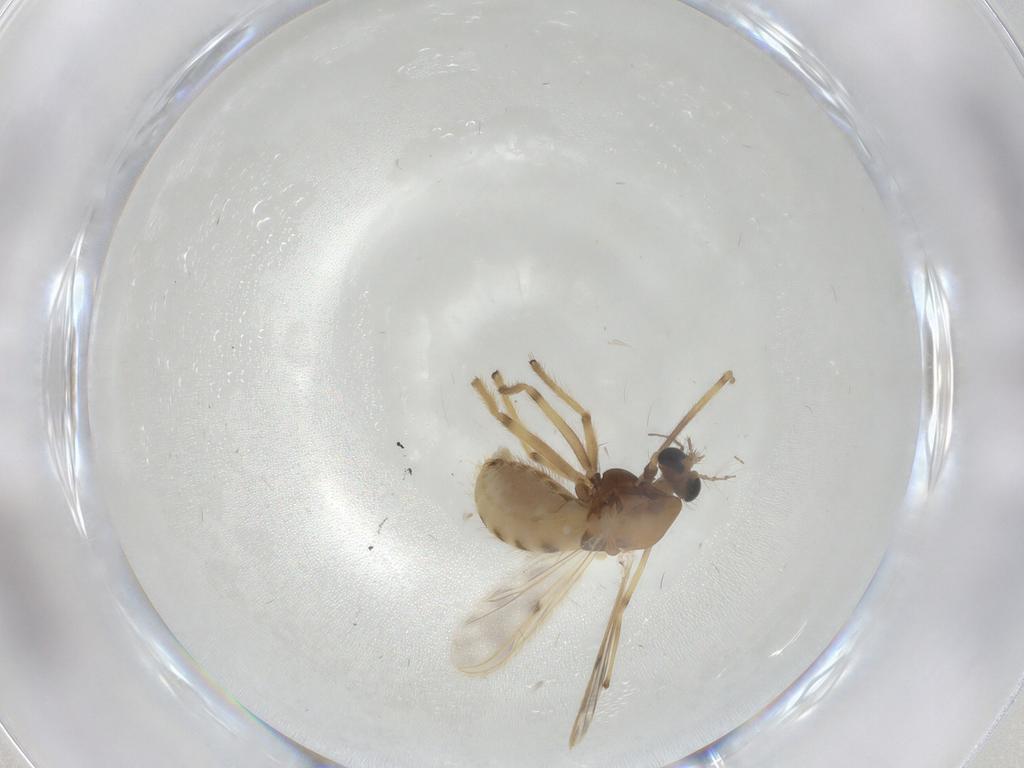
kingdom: Animalia
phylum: Arthropoda
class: Insecta
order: Diptera
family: Chironomidae
